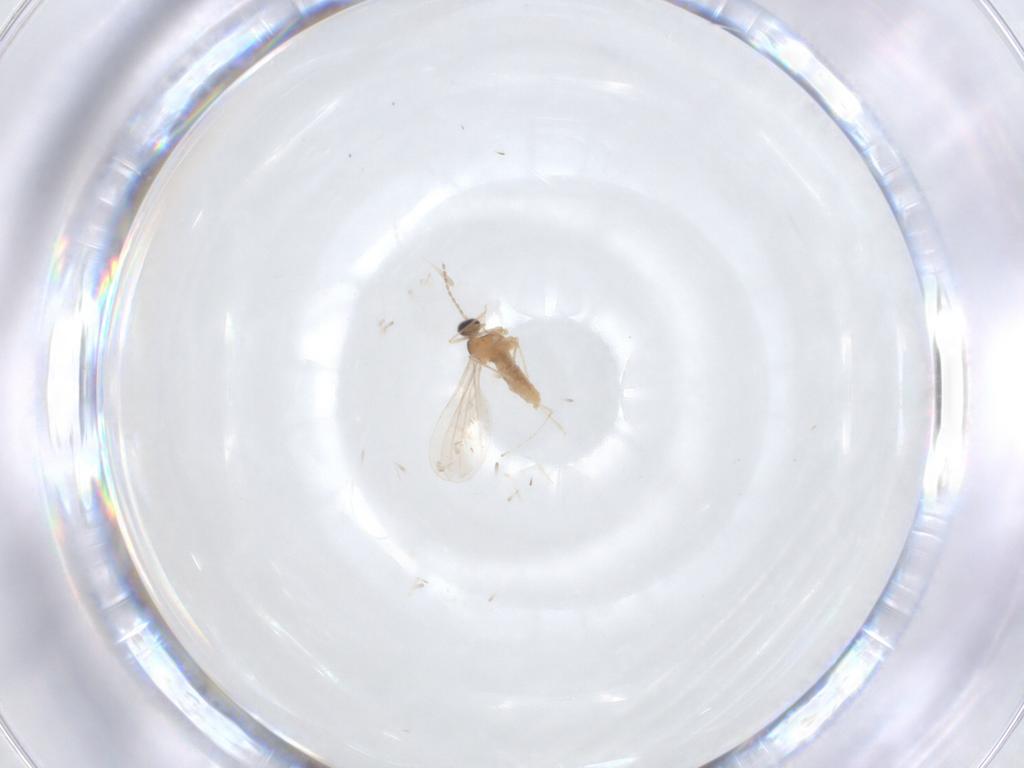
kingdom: Animalia
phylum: Arthropoda
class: Insecta
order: Diptera
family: Cecidomyiidae
